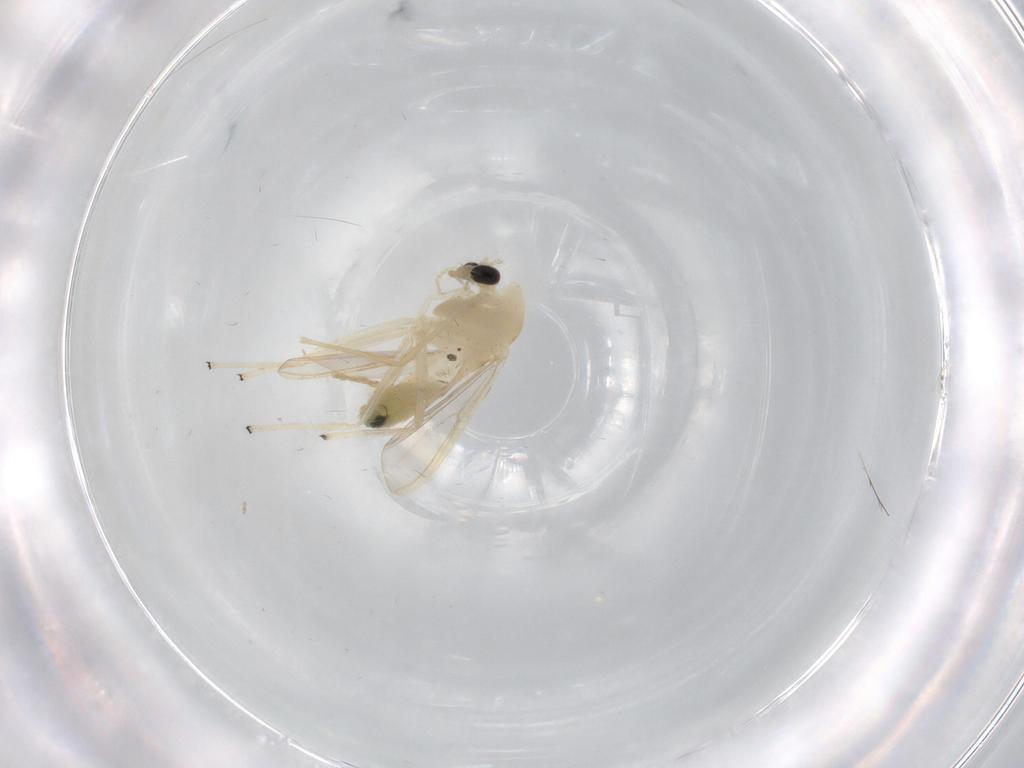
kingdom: Animalia
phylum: Arthropoda
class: Insecta
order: Diptera
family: Chironomidae
